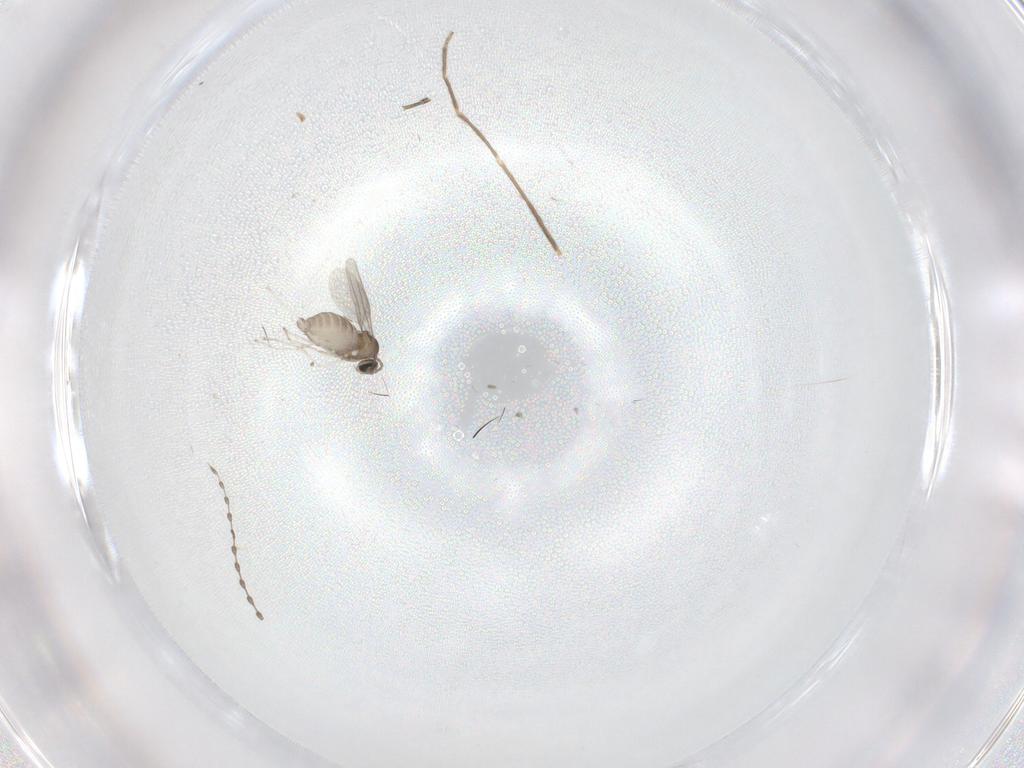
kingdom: Animalia
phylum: Arthropoda
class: Insecta
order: Diptera
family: Cecidomyiidae
